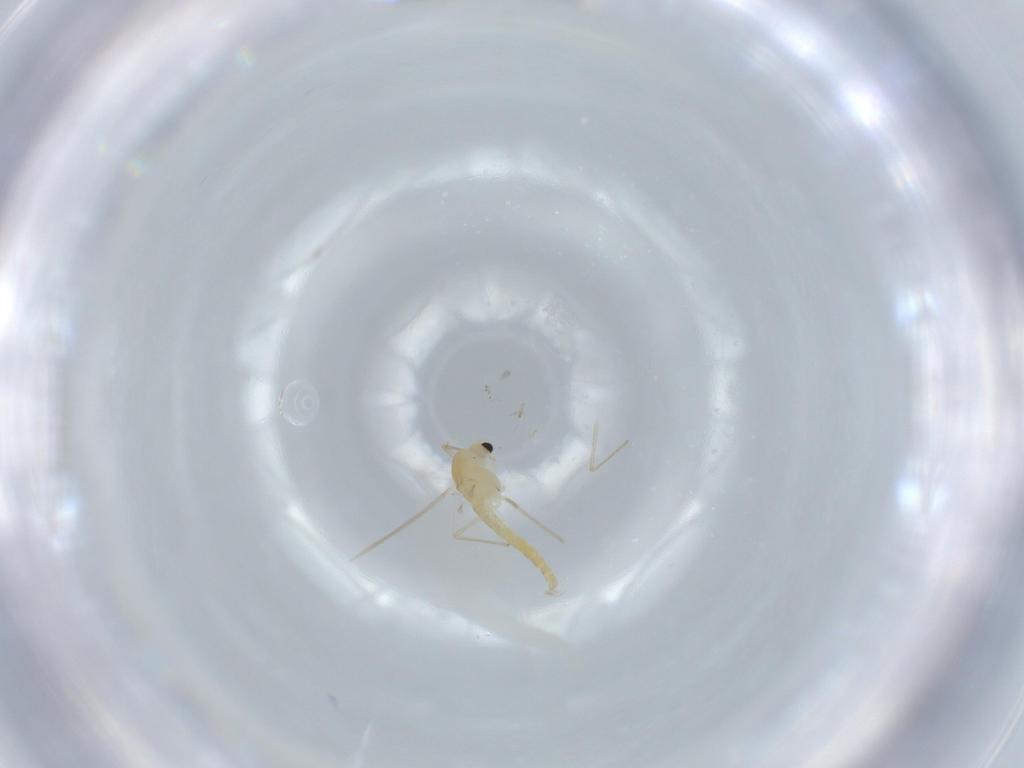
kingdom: Animalia
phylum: Arthropoda
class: Insecta
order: Diptera
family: Chironomidae
